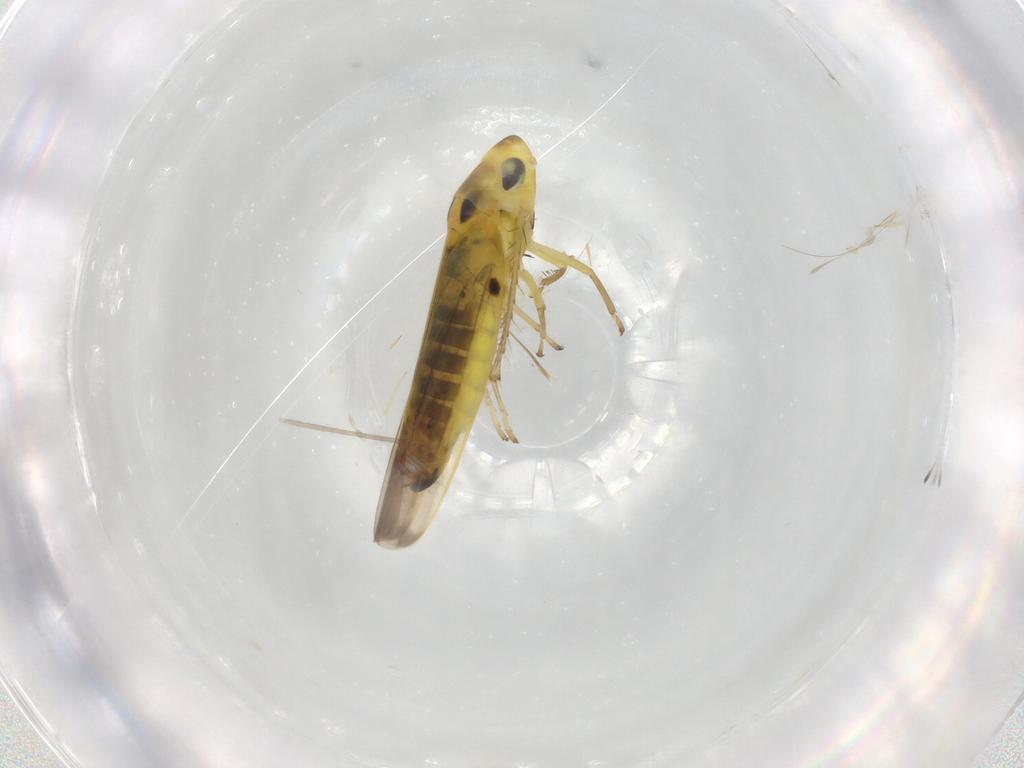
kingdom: Animalia
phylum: Arthropoda
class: Insecta
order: Hemiptera
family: Cicadellidae
